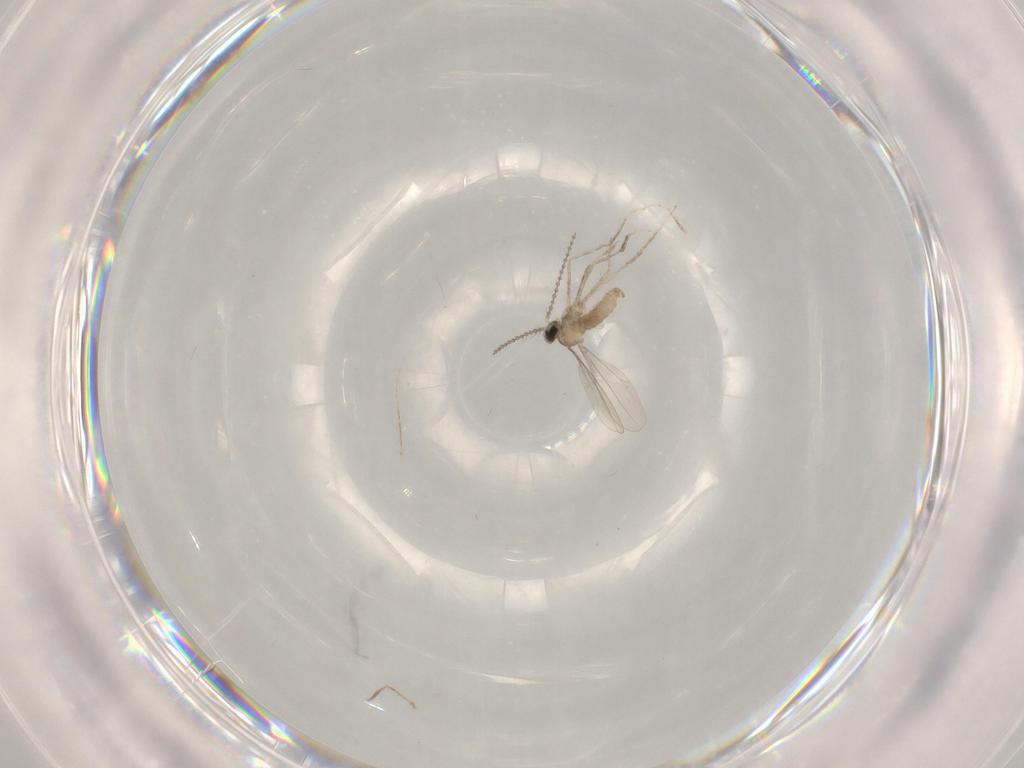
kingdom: Animalia
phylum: Arthropoda
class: Insecta
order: Diptera
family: Cecidomyiidae
